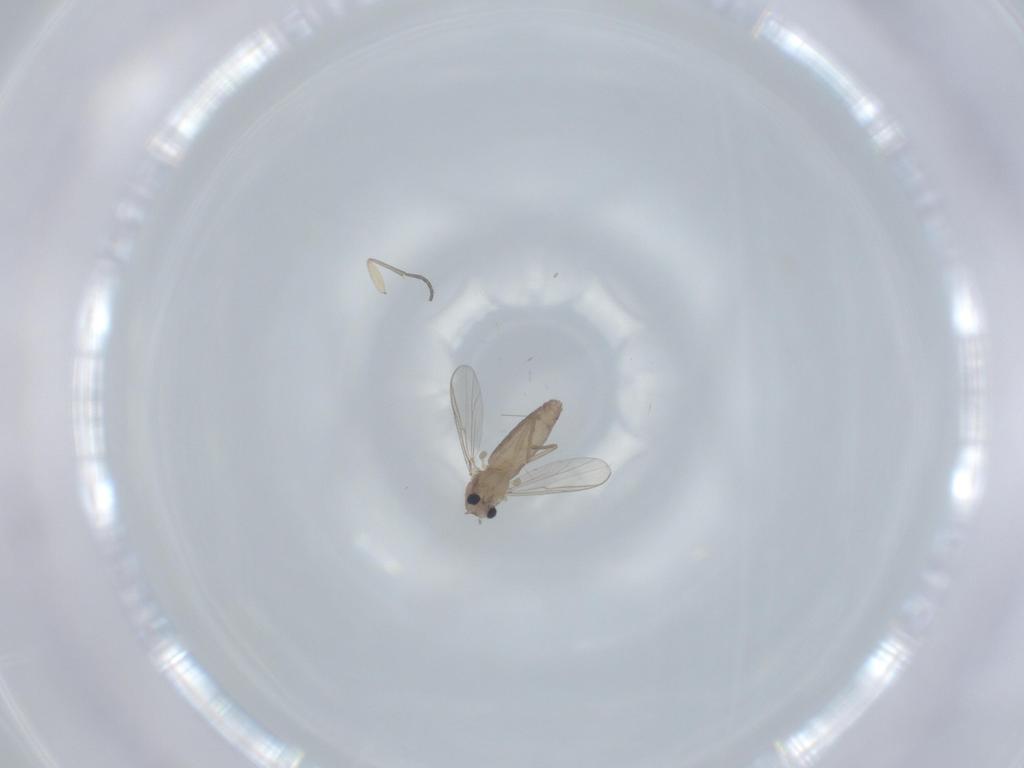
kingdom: Animalia
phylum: Arthropoda
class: Insecta
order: Diptera
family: Chironomidae
